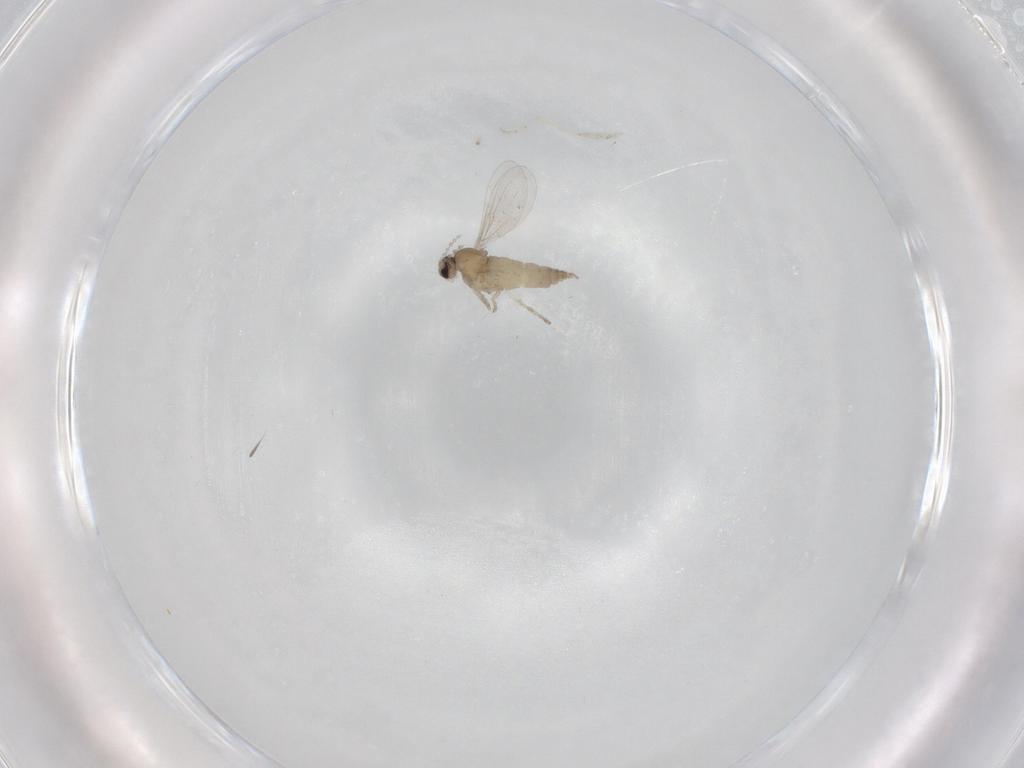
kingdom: Animalia
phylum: Arthropoda
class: Insecta
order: Diptera
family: Cecidomyiidae
